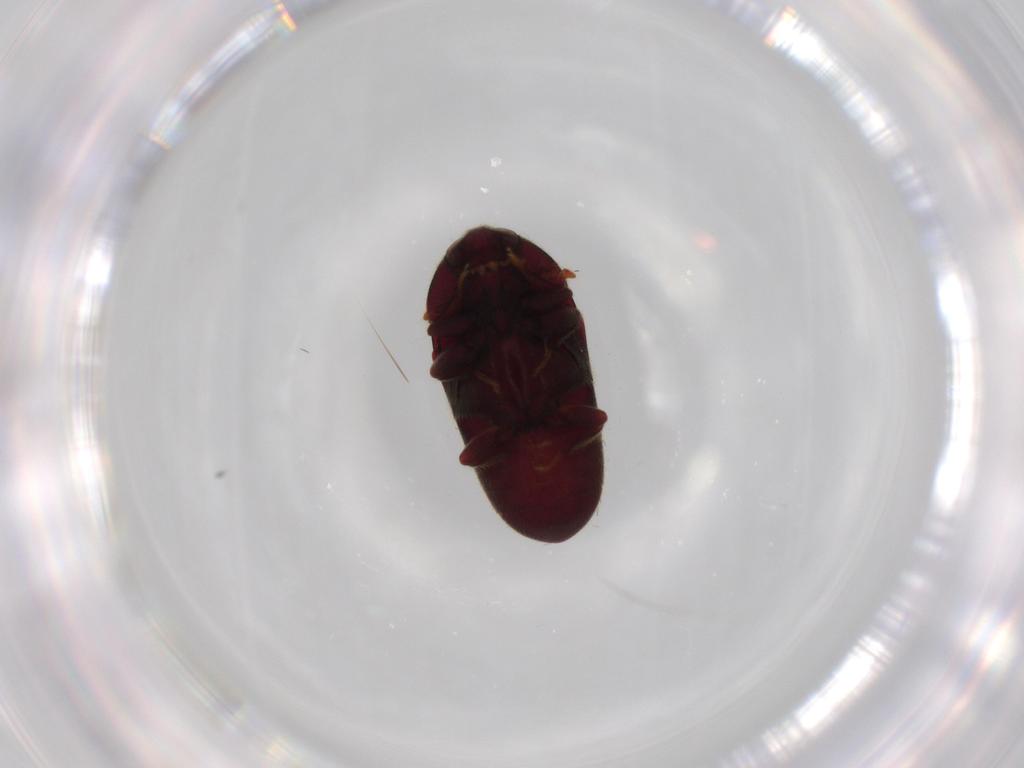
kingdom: Animalia
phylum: Arthropoda
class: Insecta
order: Coleoptera
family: Throscidae
